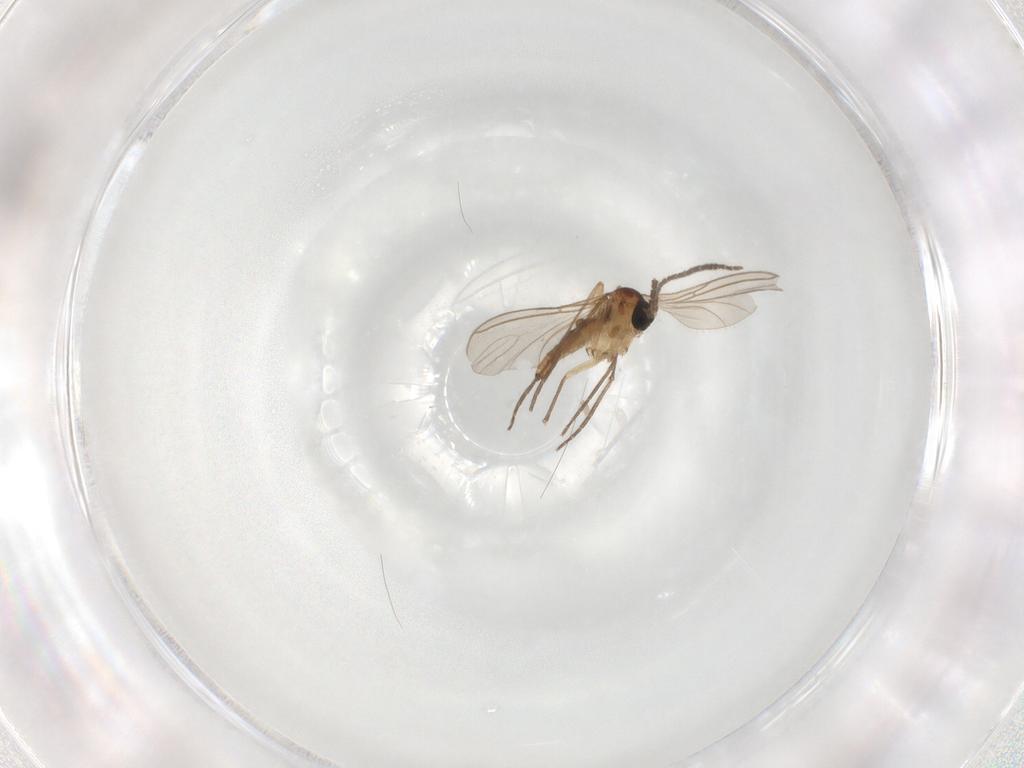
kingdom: Animalia
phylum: Arthropoda
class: Insecta
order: Diptera
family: Sciaridae
